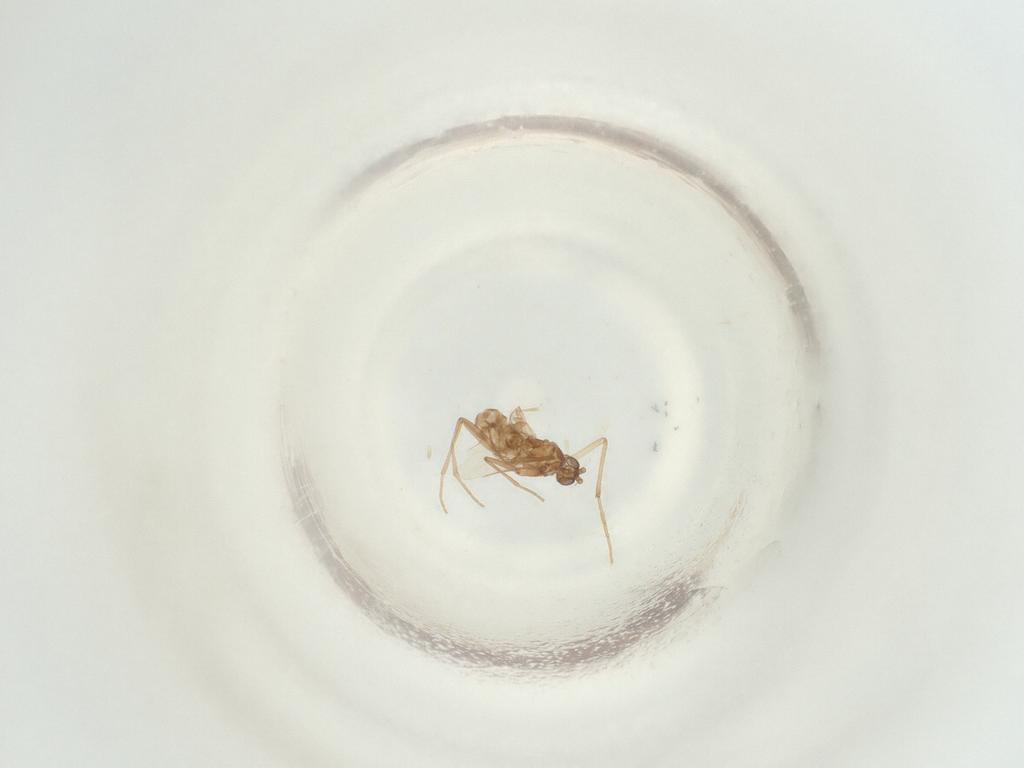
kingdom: Animalia
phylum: Arthropoda
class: Insecta
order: Diptera
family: Sciaridae
